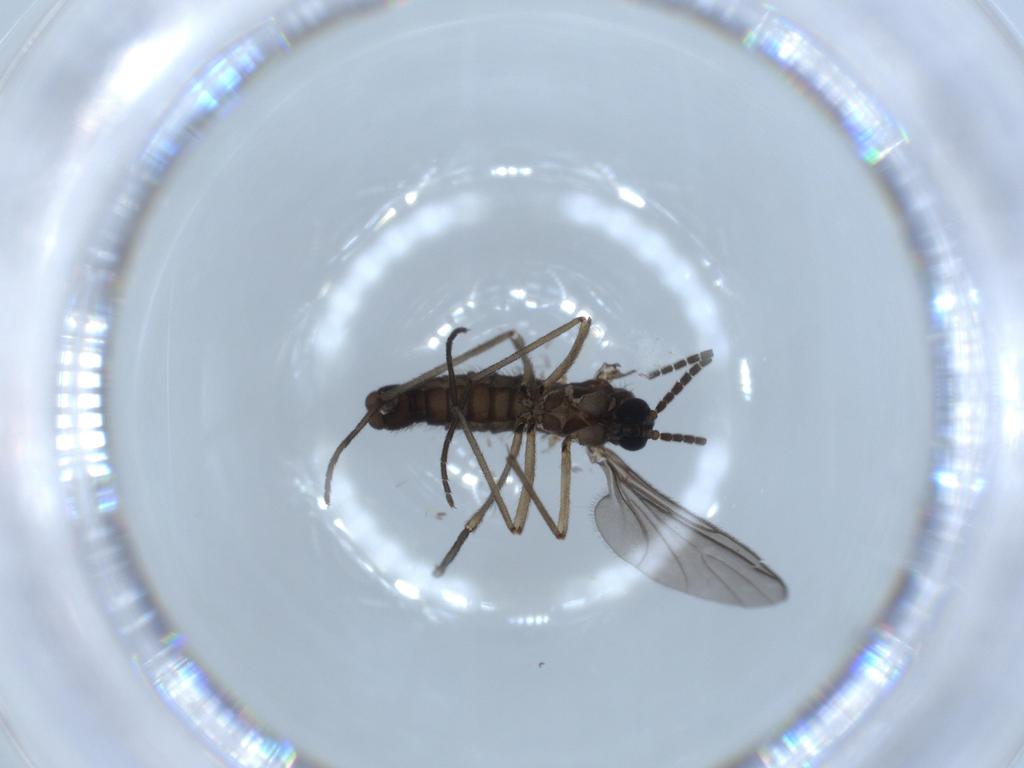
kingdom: Animalia
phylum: Arthropoda
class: Insecta
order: Diptera
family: Sciaridae
